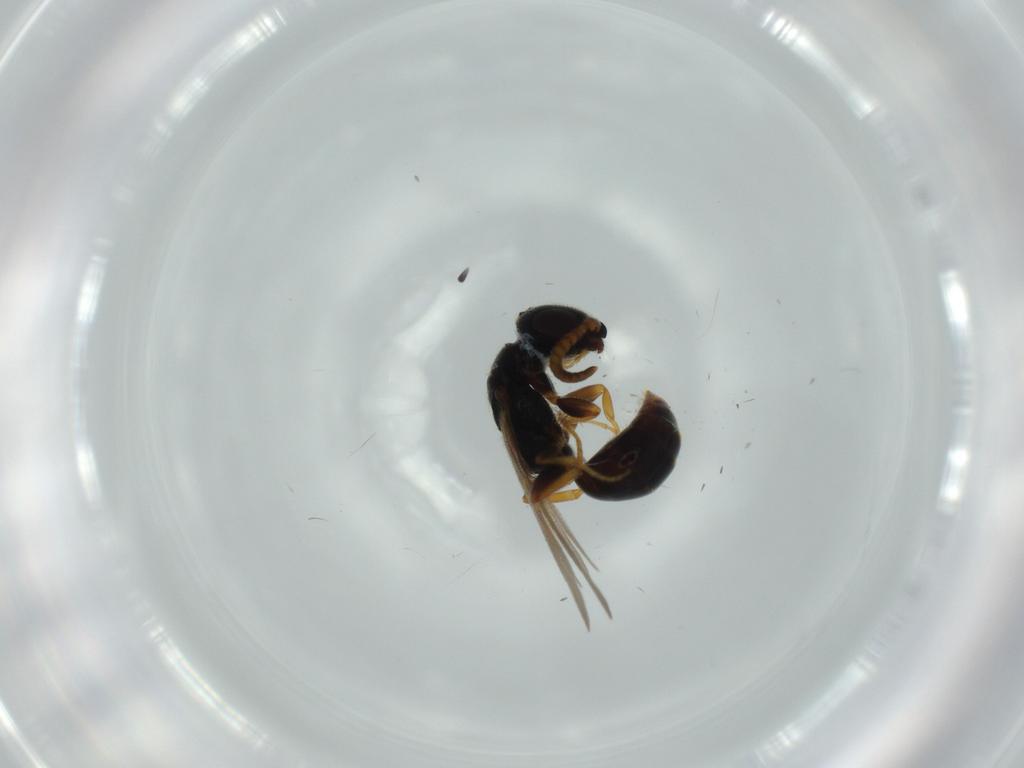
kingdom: Animalia
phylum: Arthropoda
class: Insecta
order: Hymenoptera
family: Bethylidae
